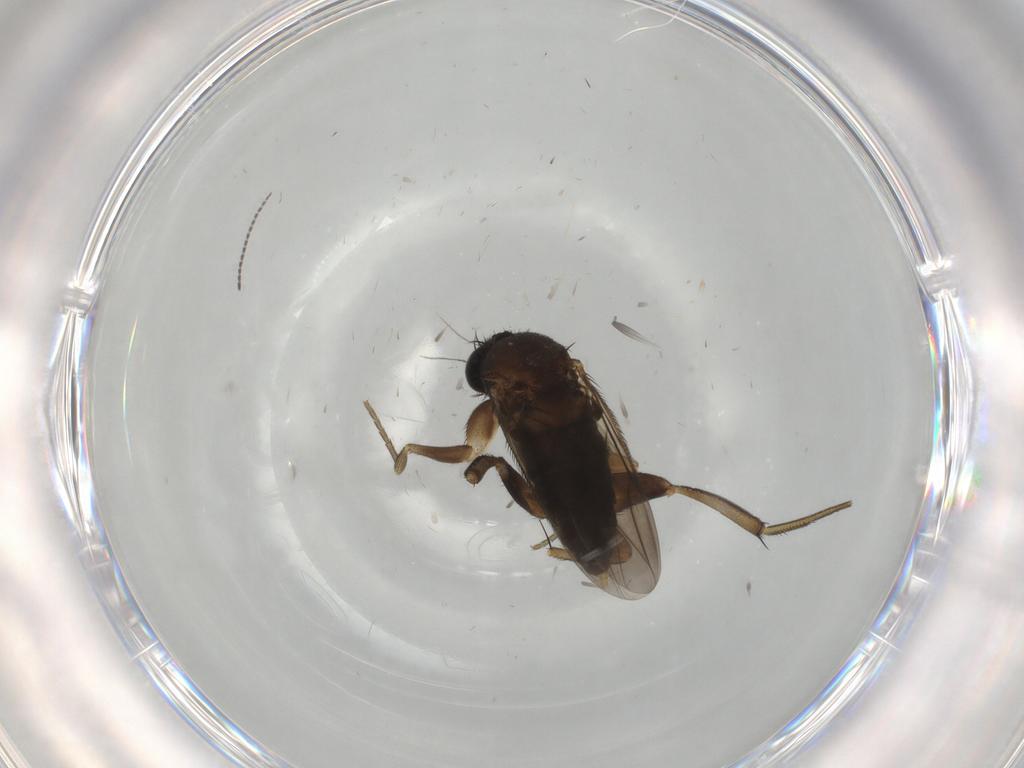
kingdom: Animalia
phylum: Arthropoda
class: Insecta
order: Diptera
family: Phoridae
